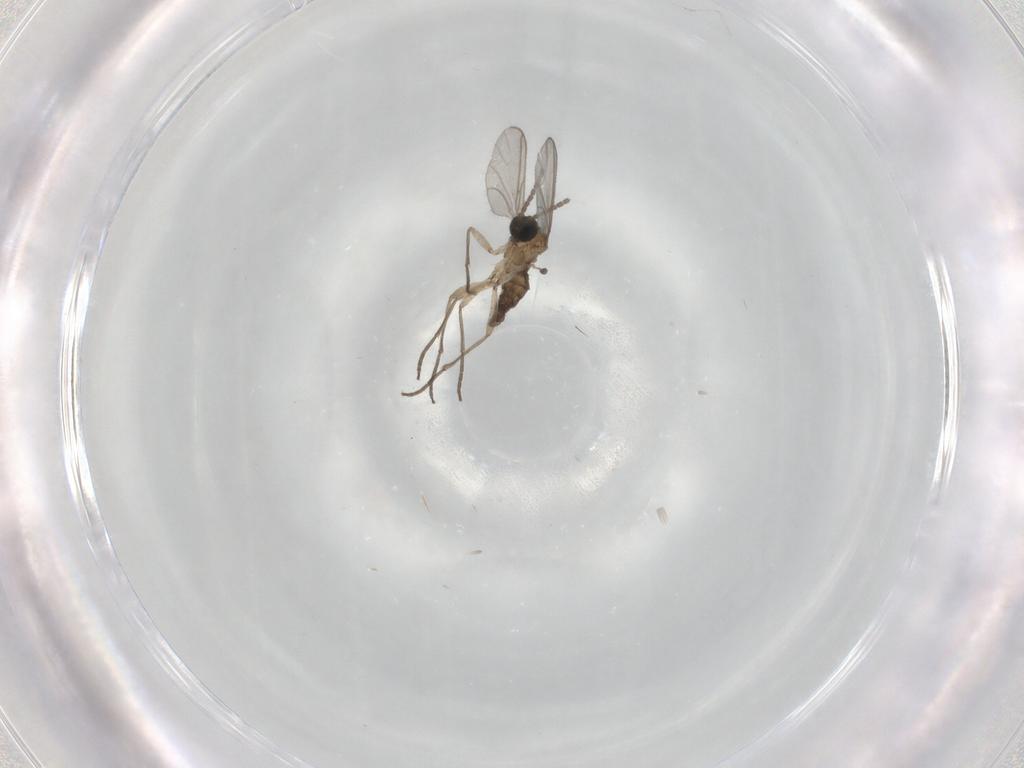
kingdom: Animalia
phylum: Arthropoda
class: Insecta
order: Diptera
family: Sciaridae
